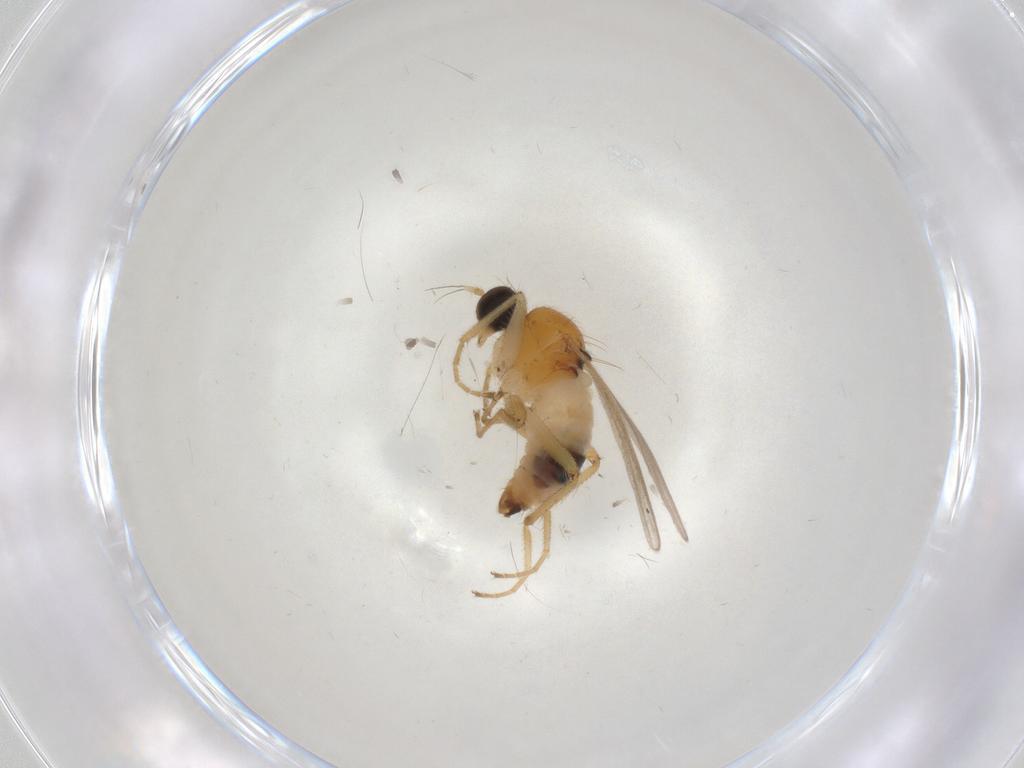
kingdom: Animalia
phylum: Arthropoda
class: Insecta
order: Diptera
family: Hybotidae
